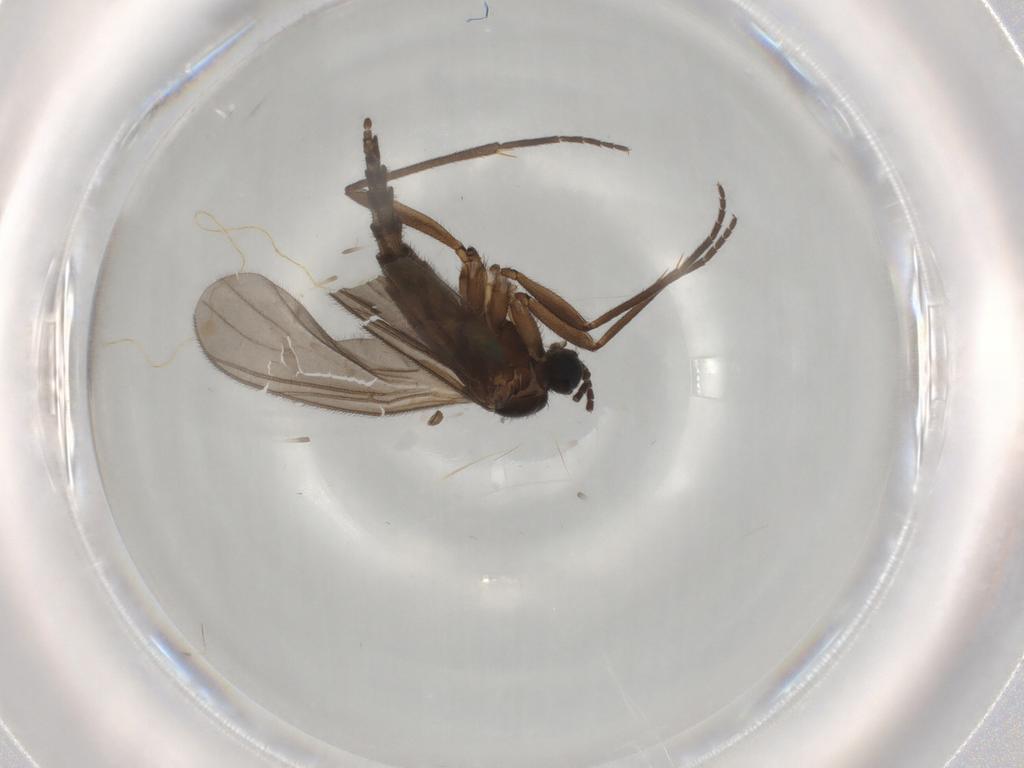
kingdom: Animalia
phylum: Arthropoda
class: Insecta
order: Diptera
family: Sciaridae
